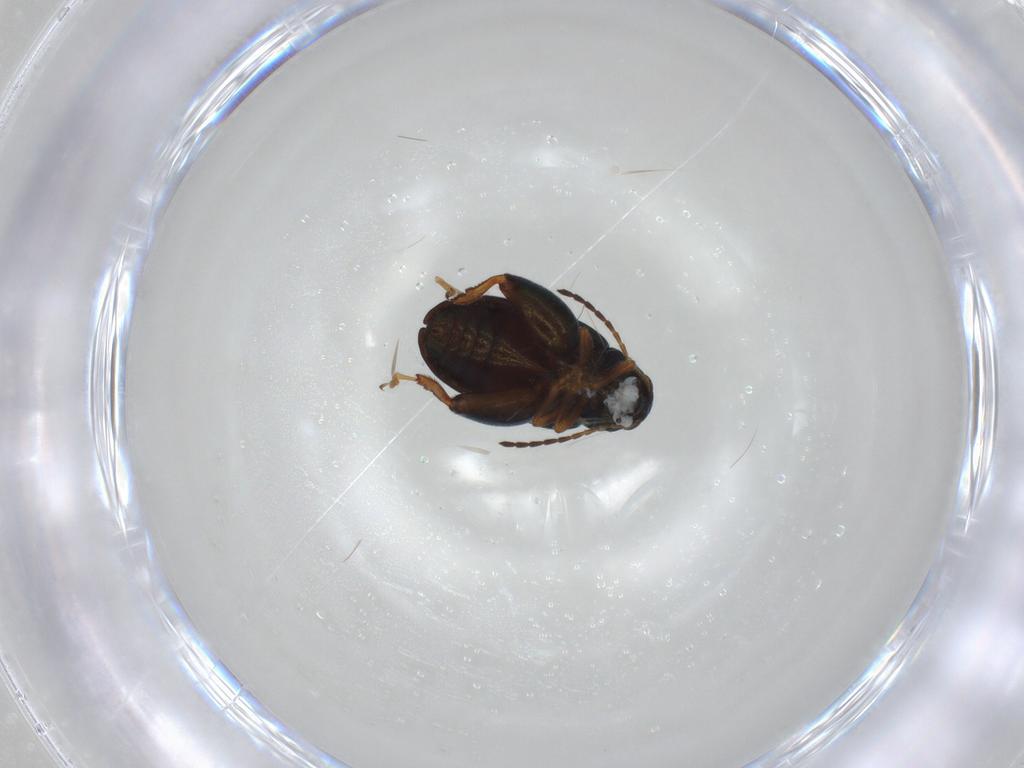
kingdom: Animalia
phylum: Arthropoda
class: Insecta
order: Coleoptera
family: Chrysomelidae
